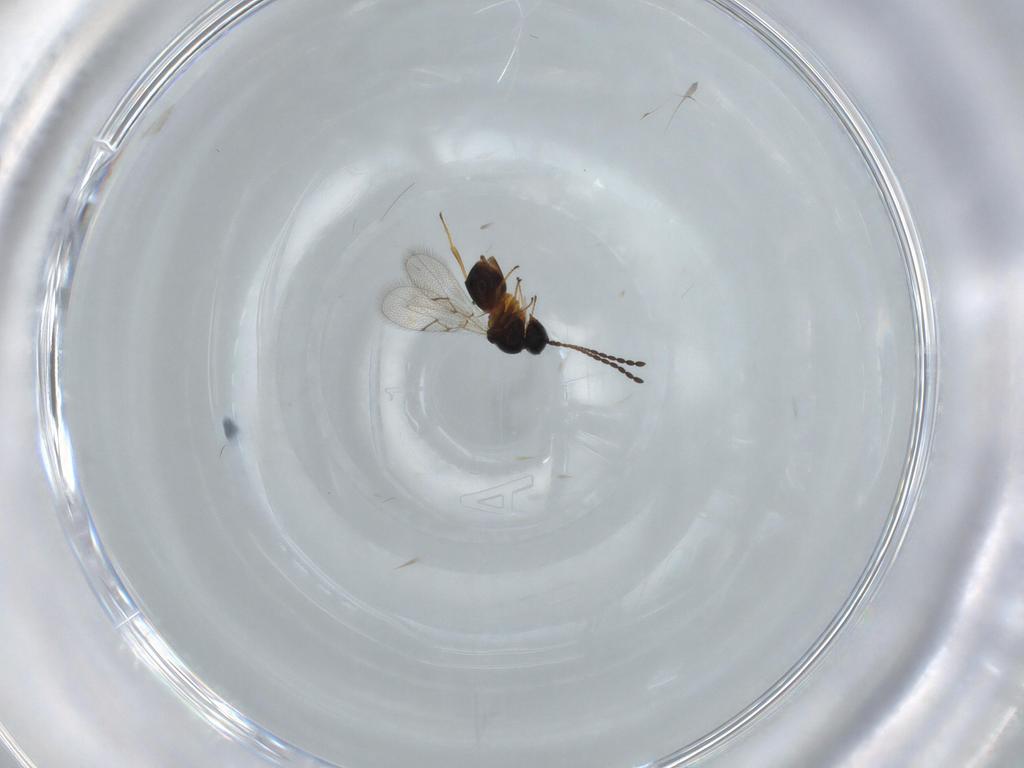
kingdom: Animalia
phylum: Arthropoda
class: Insecta
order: Hymenoptera
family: Figitidae
